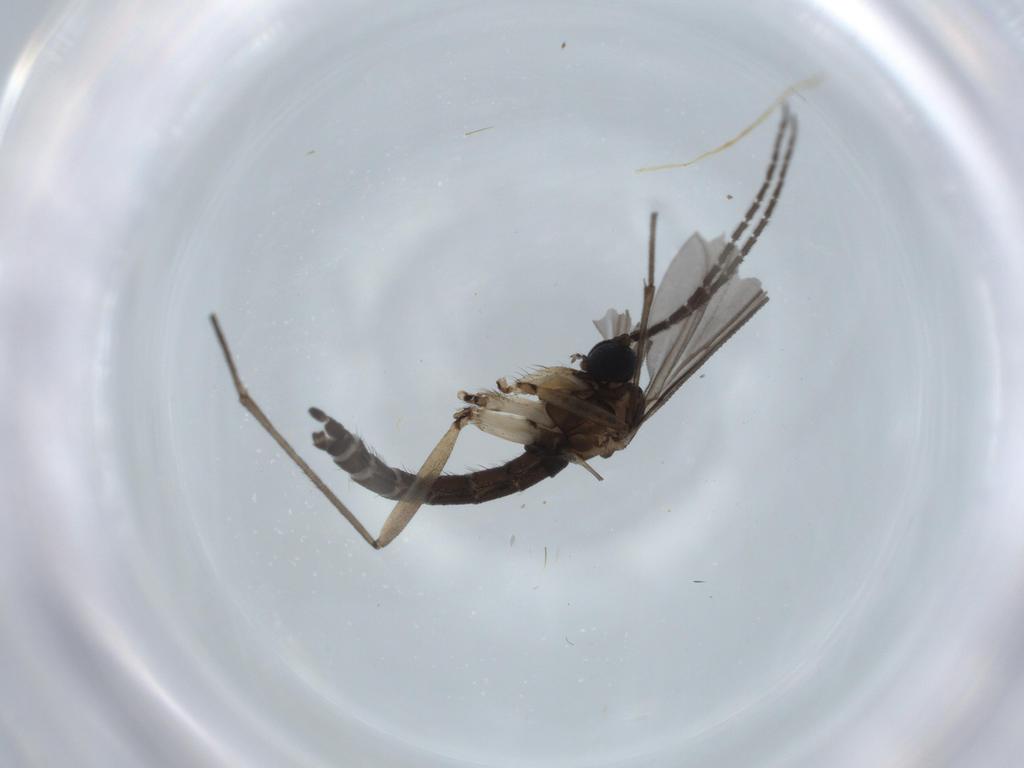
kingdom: Animalia
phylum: Arthropoda
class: Insecta
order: Diptera
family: Sciaridae
